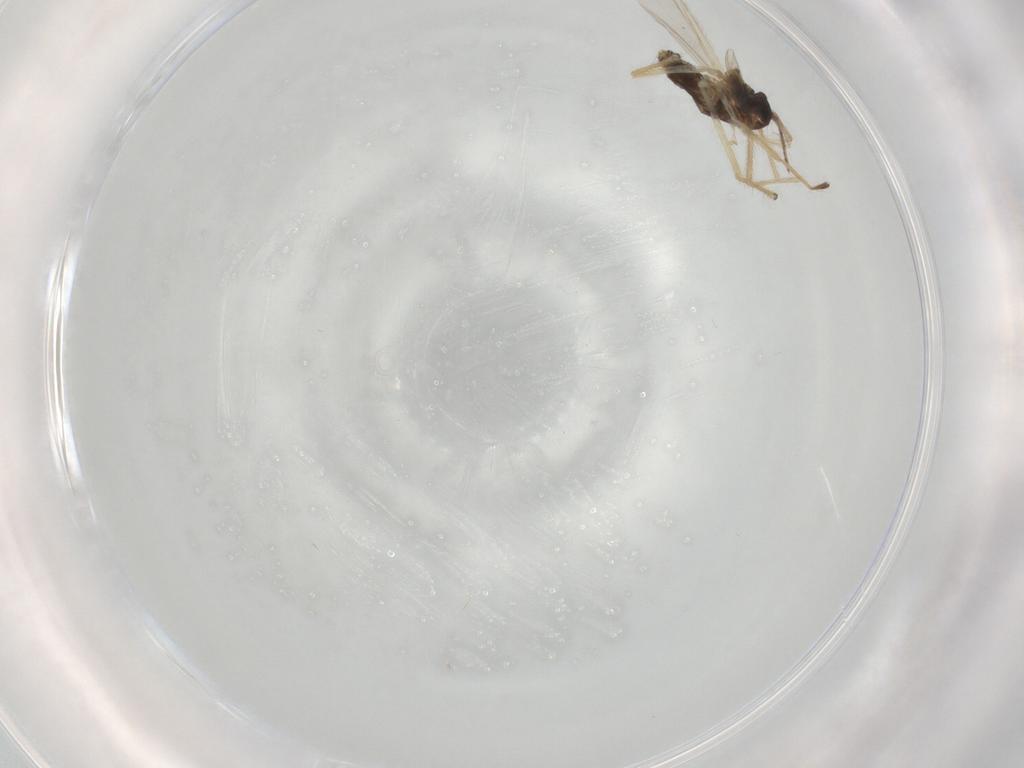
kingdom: Animalia
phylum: Arthropoda
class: Insecta
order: Diptera
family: Chironomidae
